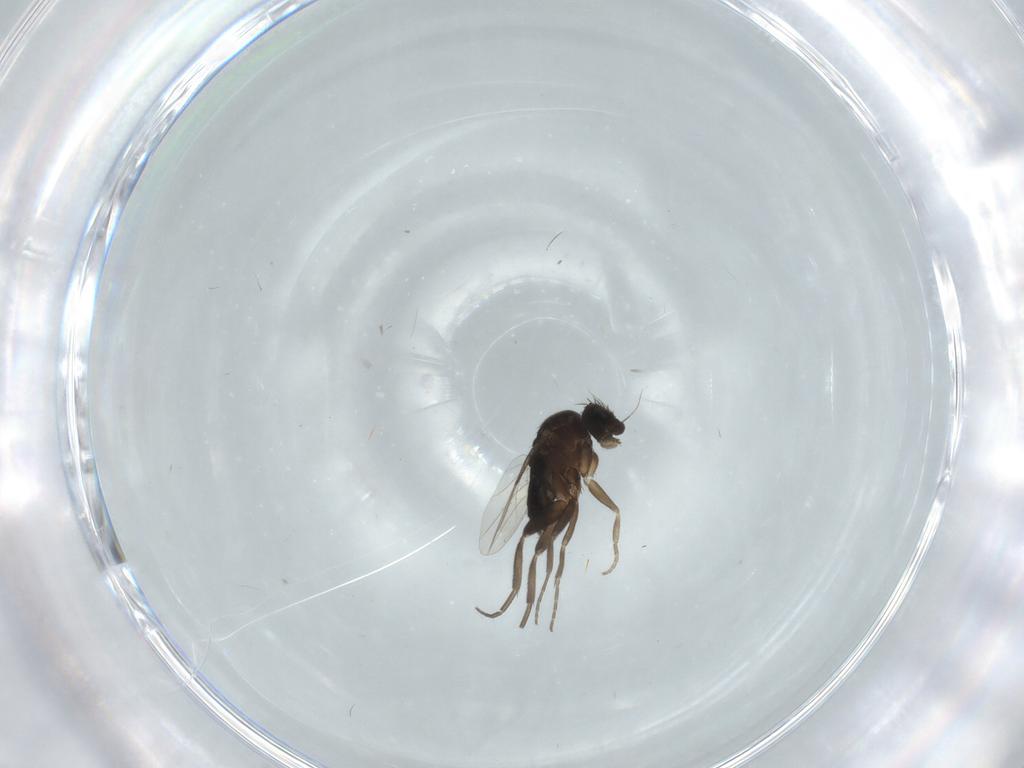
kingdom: Animalia
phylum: Arthropoda
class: Insecta
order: Diptera
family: Phoridae
